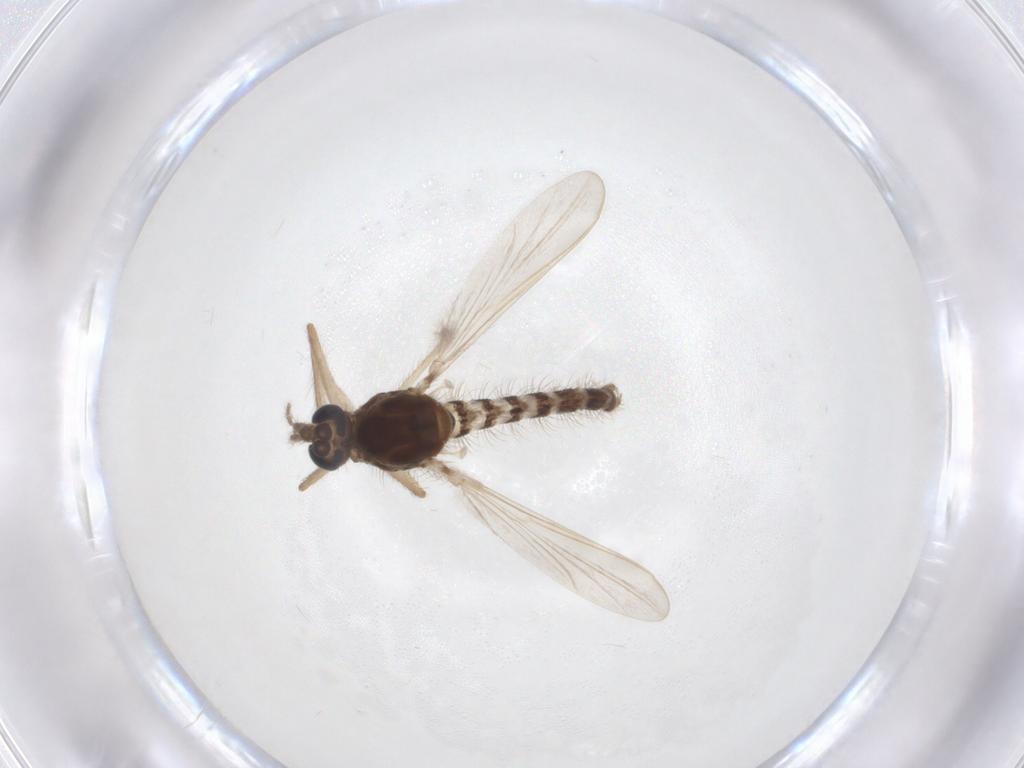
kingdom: Animalia
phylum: Arthropoda
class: Insecta
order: Diptera
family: Chironomidae
